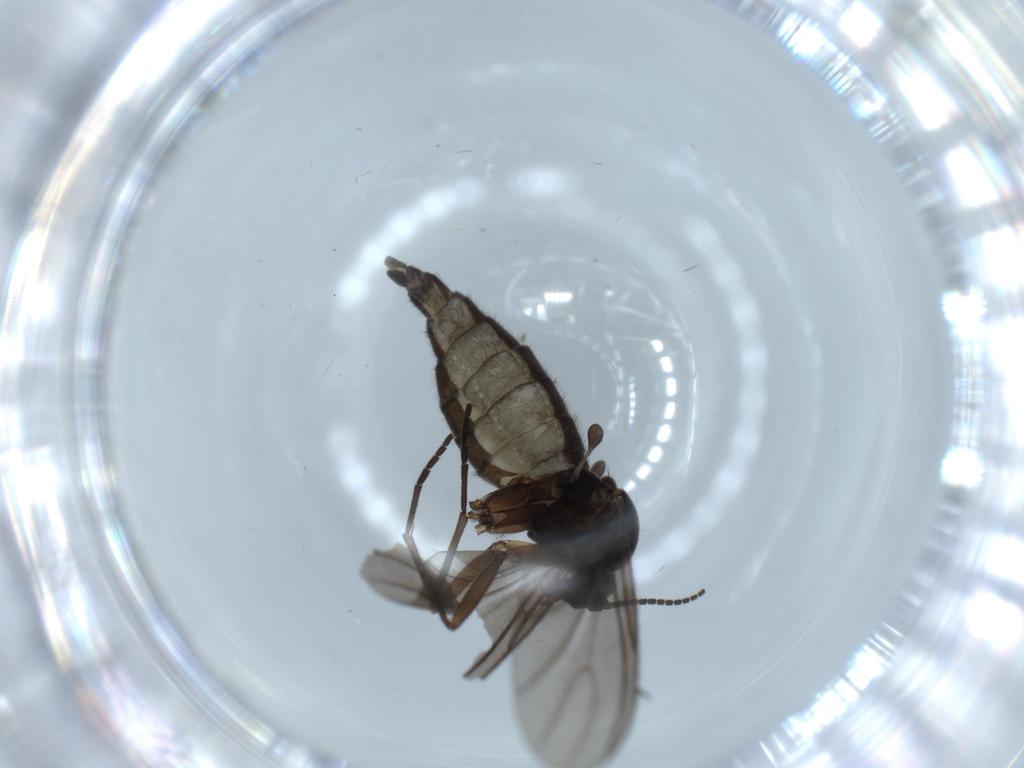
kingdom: Animalia
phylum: Arthropoda
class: Insecta
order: Diptera
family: Sciaridae
